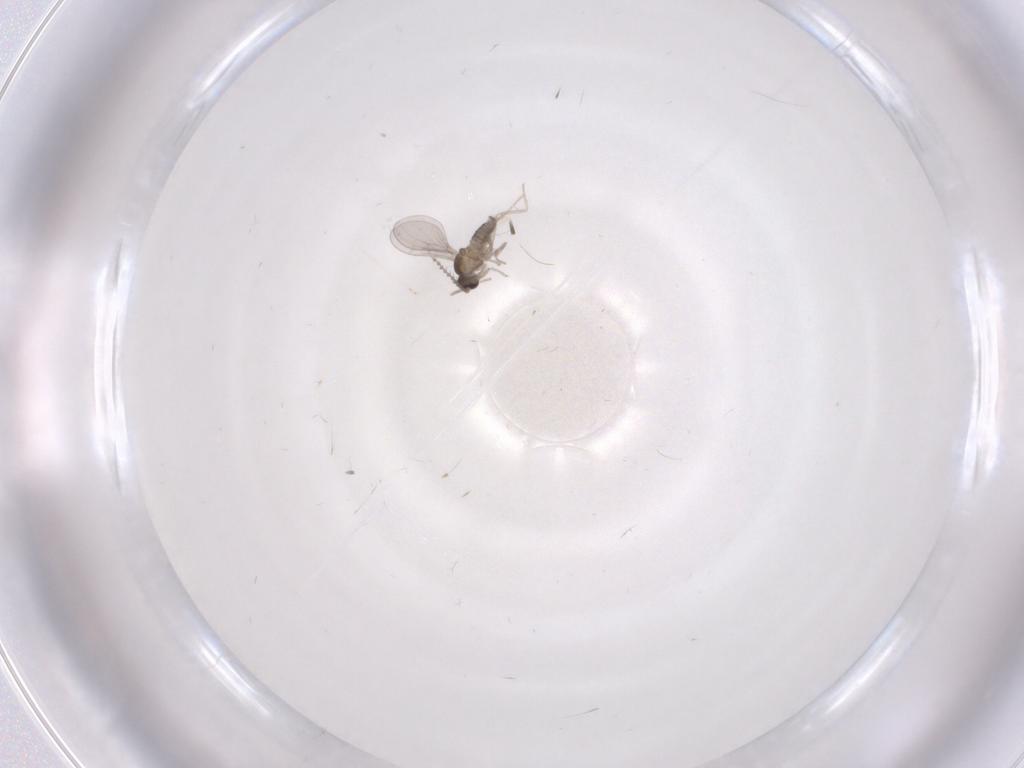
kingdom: Animalia
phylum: Arthropoda
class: Insecta
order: Diptera
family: Cecidomyiidae
